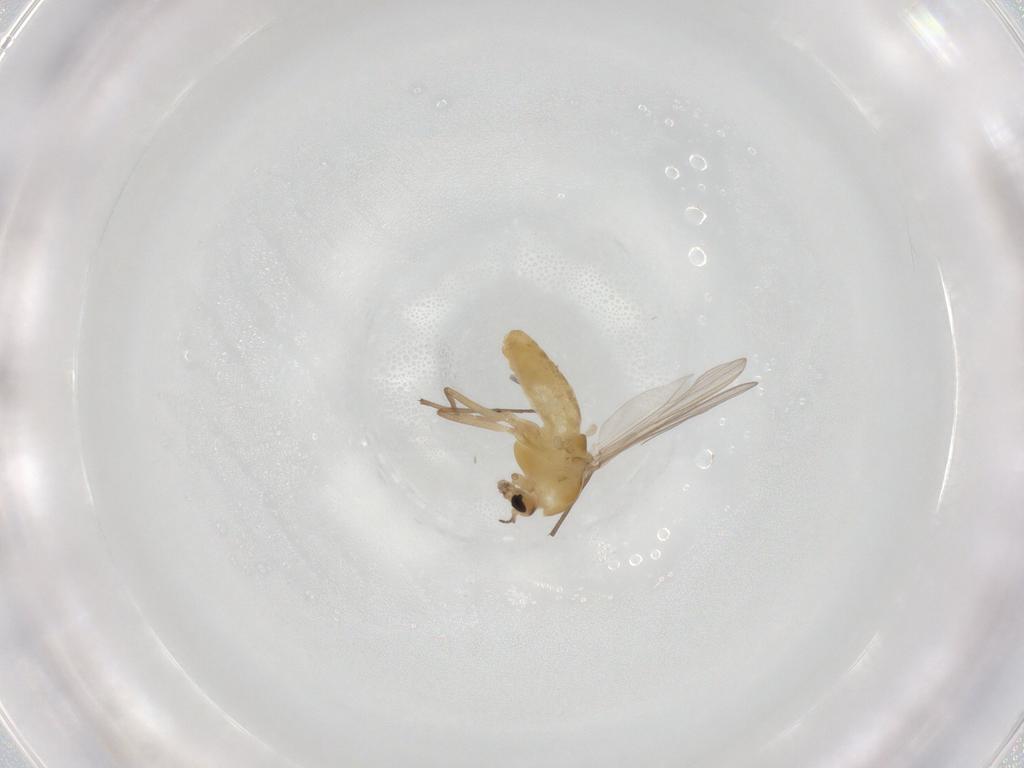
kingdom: Animalia
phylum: Arthropoda
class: Insecta
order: Diptera
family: Chironomidae
